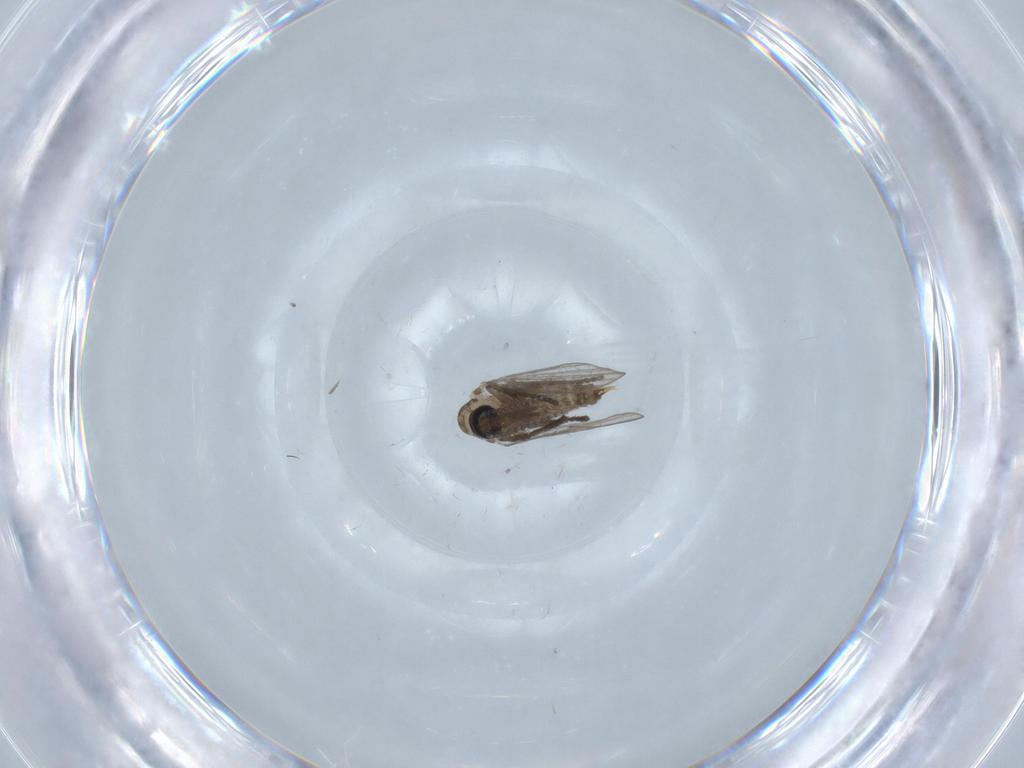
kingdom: Animalia
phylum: Arthropoda
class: Insecta
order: Diptera
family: Psychodidae
